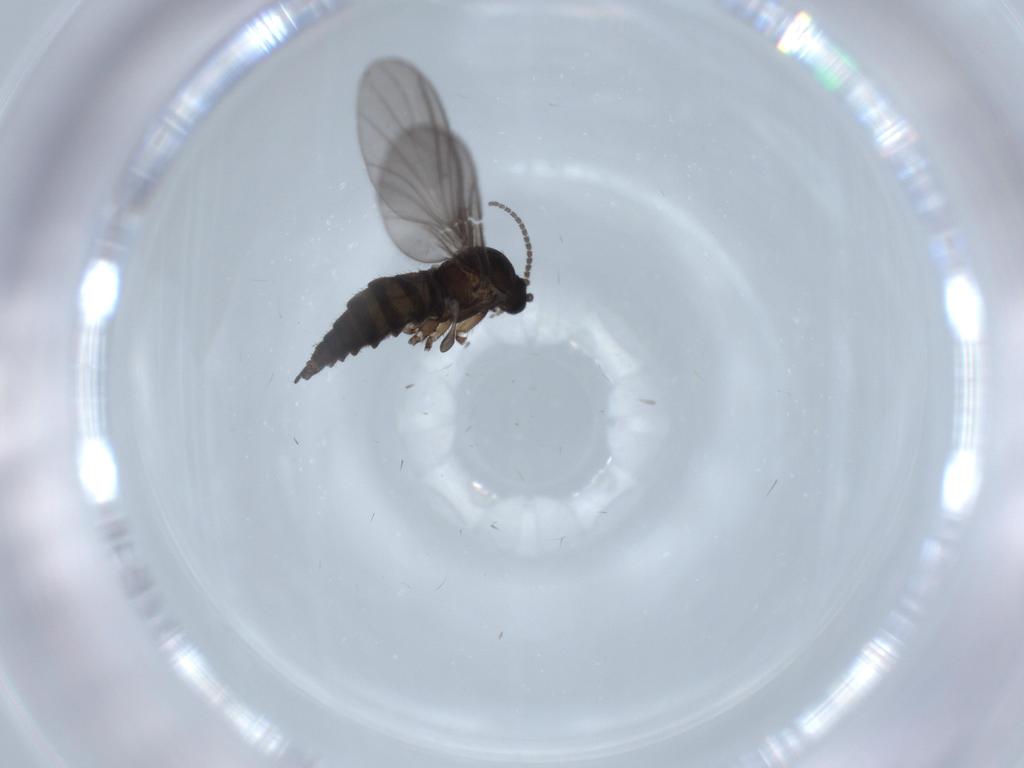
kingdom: Animalia
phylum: Arthropoda
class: Insecta
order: Diptera
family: Sciaridae
